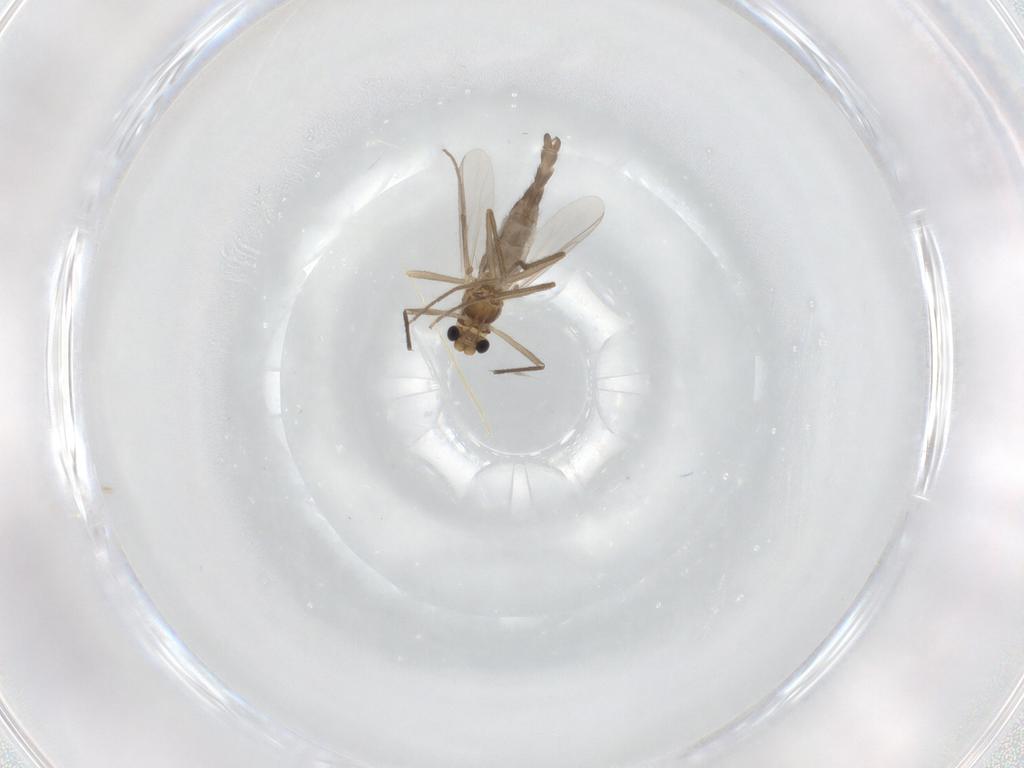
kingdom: Animalia
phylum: Arthropoda
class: Insecta
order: Diptera
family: Chironomidae
